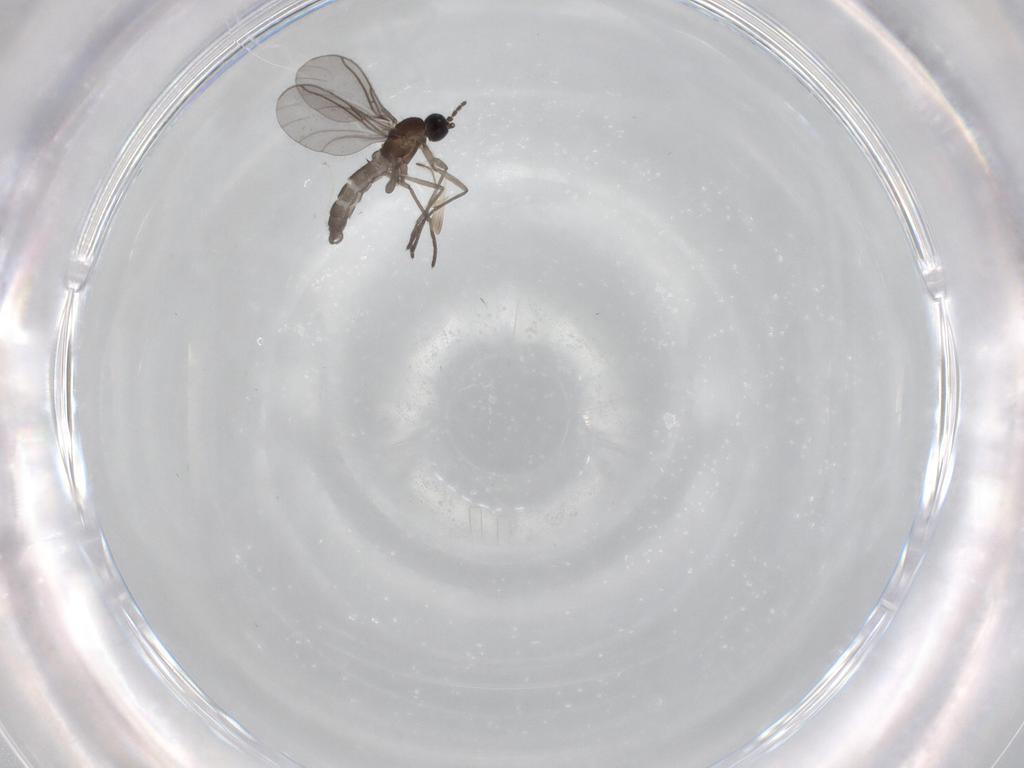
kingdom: Animalia
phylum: Arthropoda
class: Insecta
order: Diptera
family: Sciaridae
